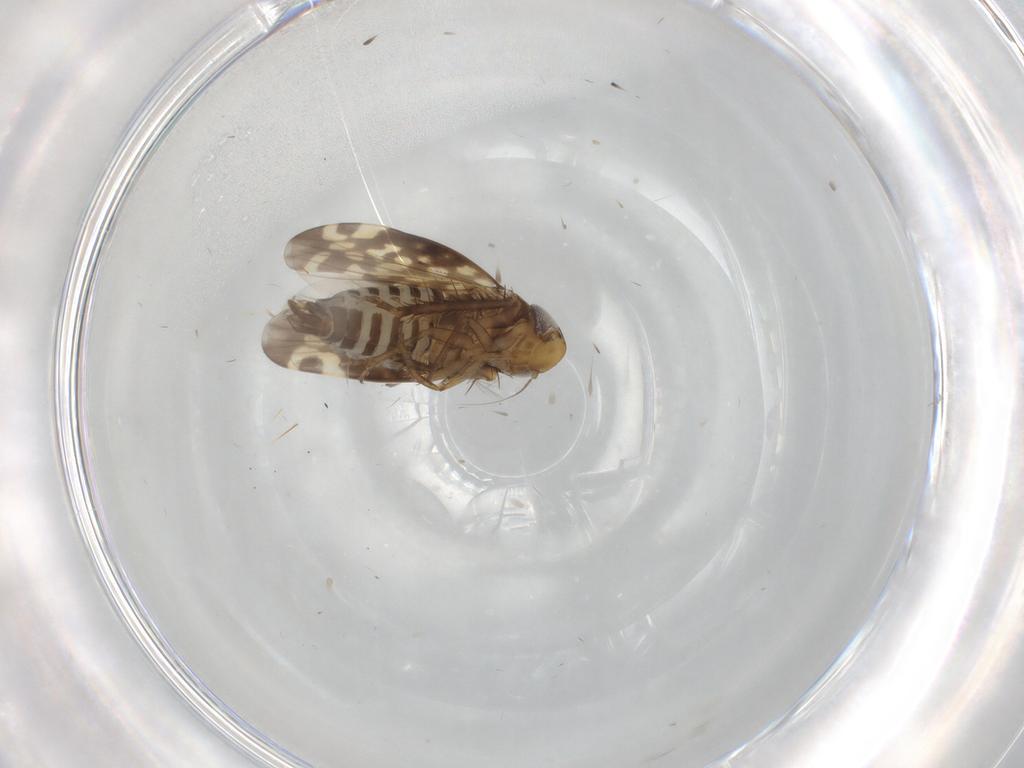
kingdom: Animalia
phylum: Arthropoda
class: Insecta
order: Hemiptera
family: Cicadellidae
